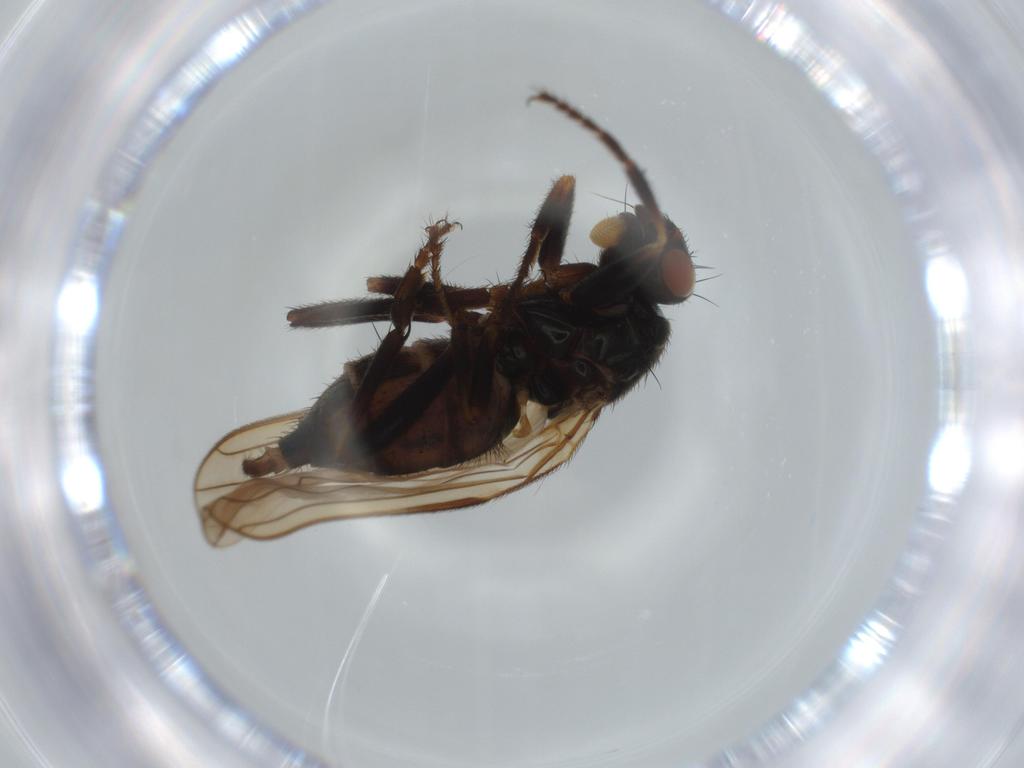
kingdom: Animalia
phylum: Arthropoda
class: Insecta
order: Diptera
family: Sphaeroceridae
